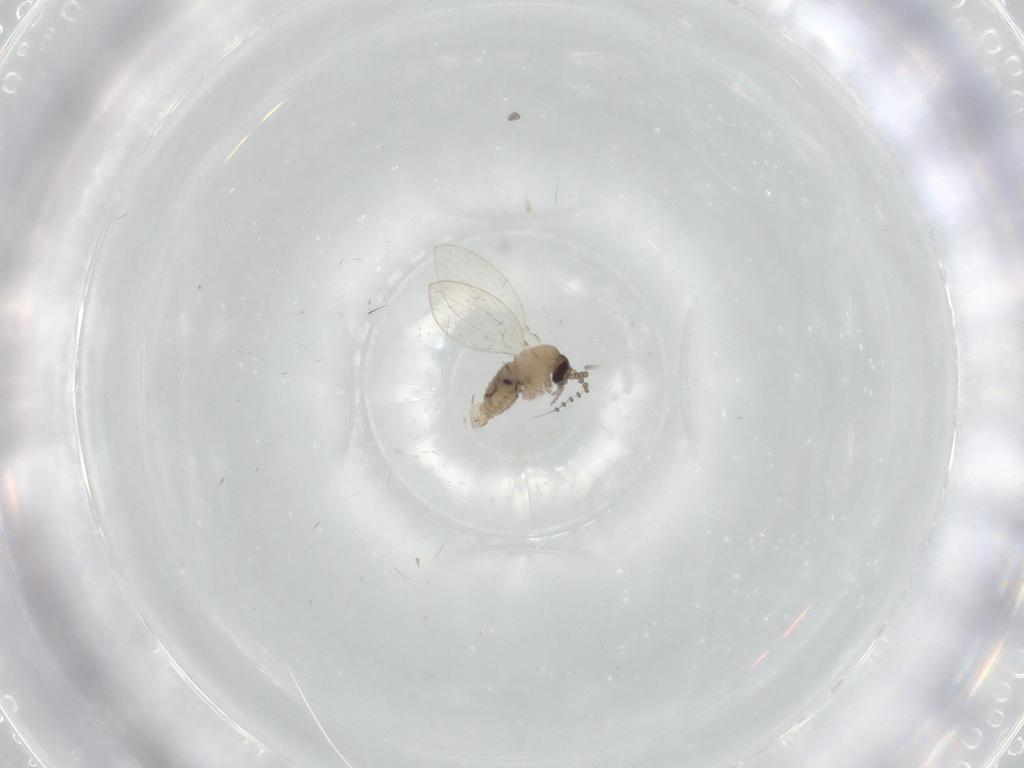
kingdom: Animalia
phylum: Arthropoda
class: Insecta
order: Diptera
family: Psychodidae
